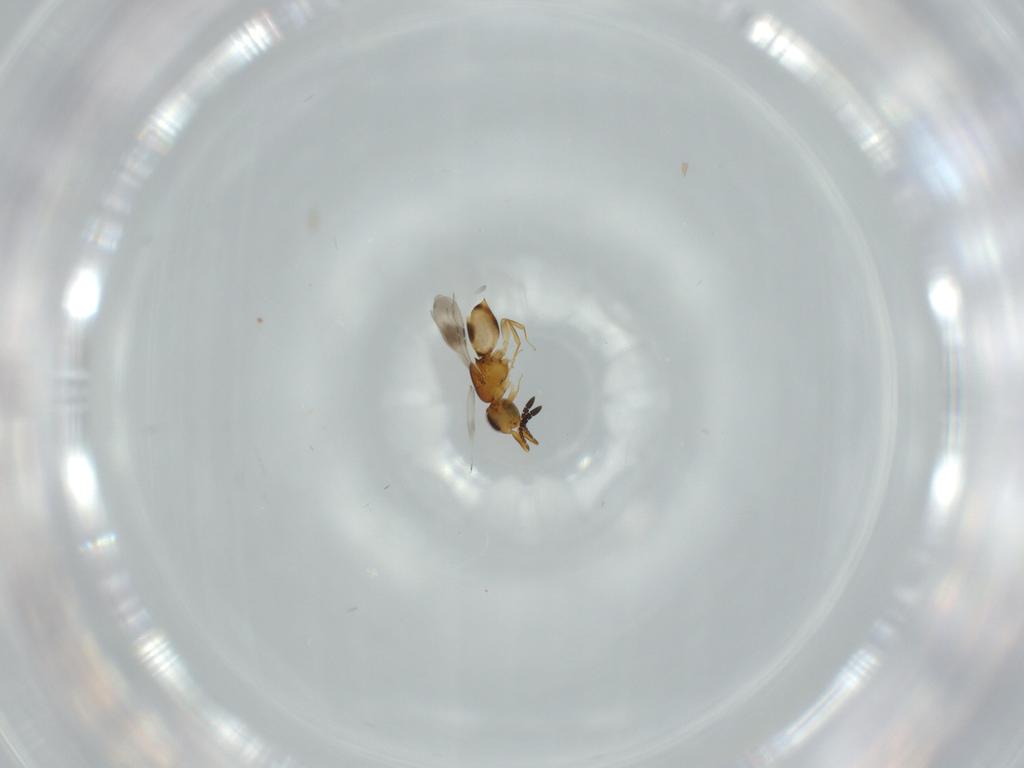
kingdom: Animalia
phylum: Arthropoda
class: Insecta
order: Hymenoptera
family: Ceraphronidae
